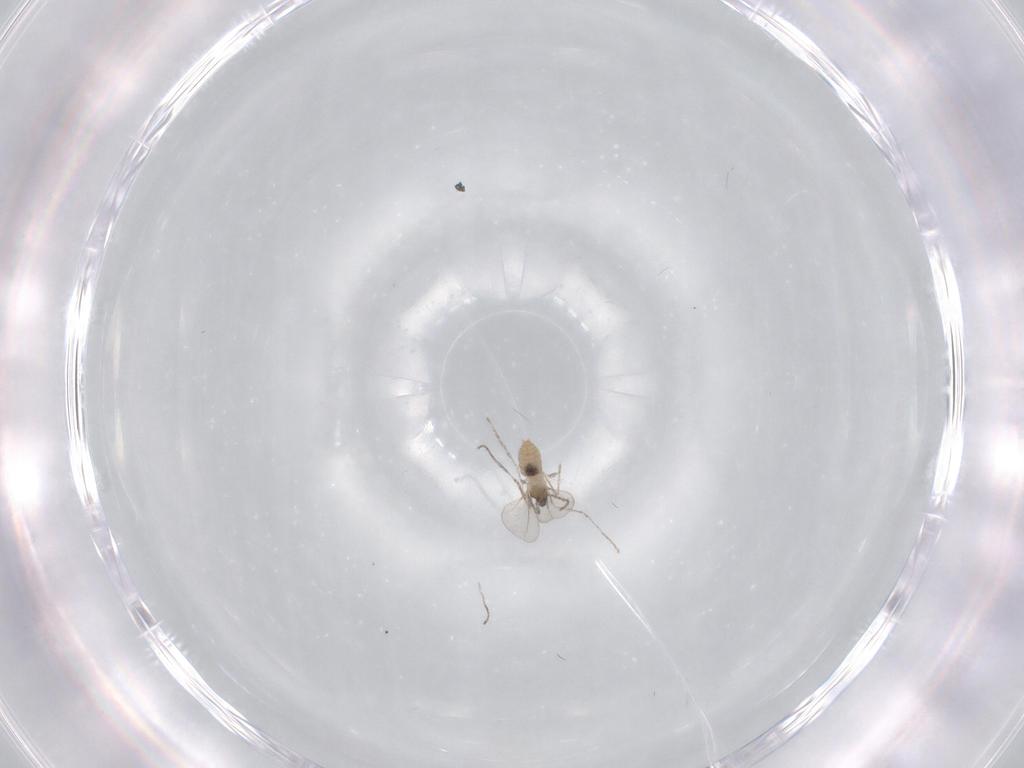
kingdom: Animalia
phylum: Arthropoda
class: Insecta
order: Diptera
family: Cecidomyiidae
